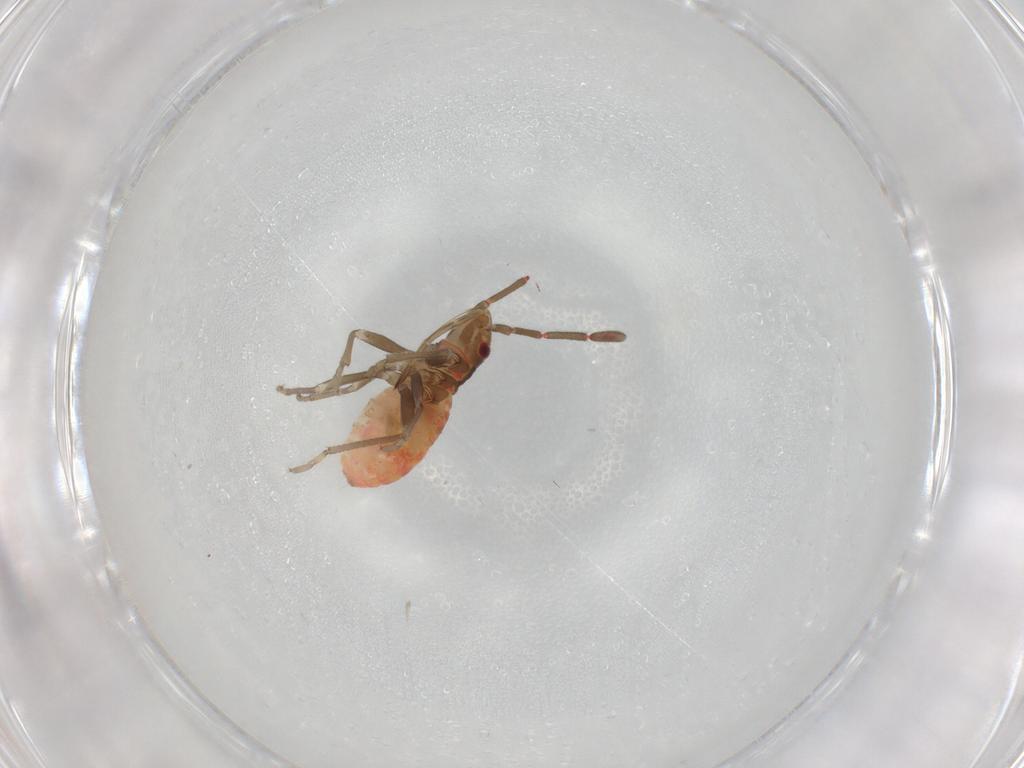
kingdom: Animalia
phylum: Arthropoda
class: Insecta
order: Hemiptera
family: Rhyparochromidae
